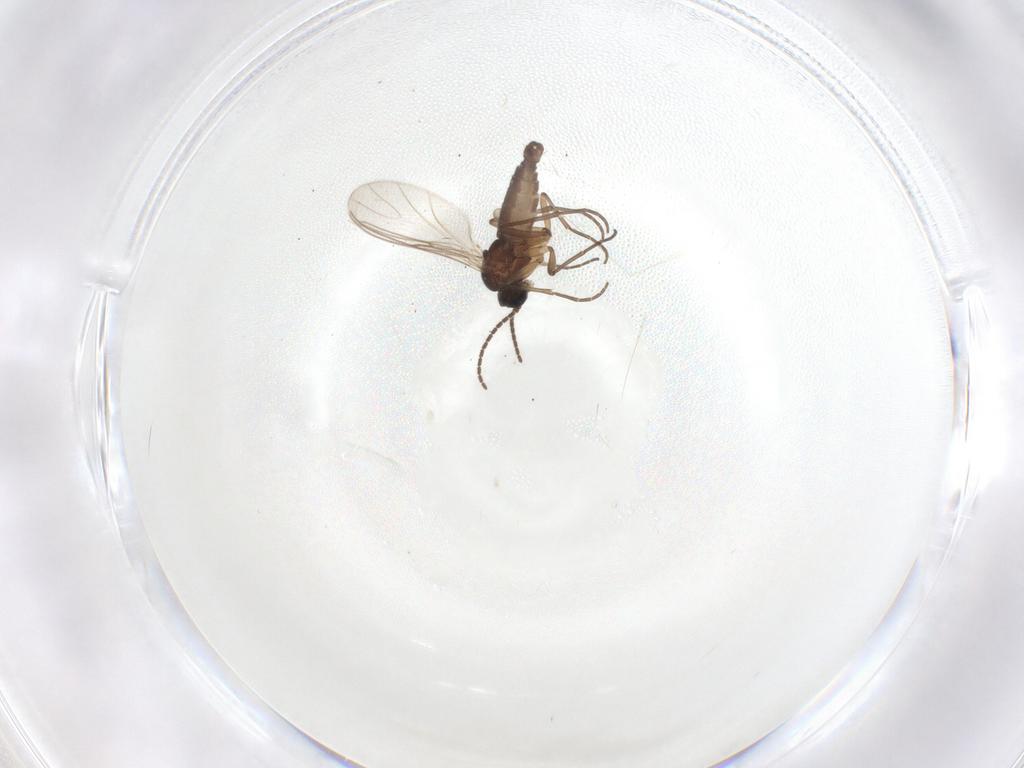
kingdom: Animalia
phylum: Arthropoda
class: Insecta
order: Diptera
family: Sciaridae
